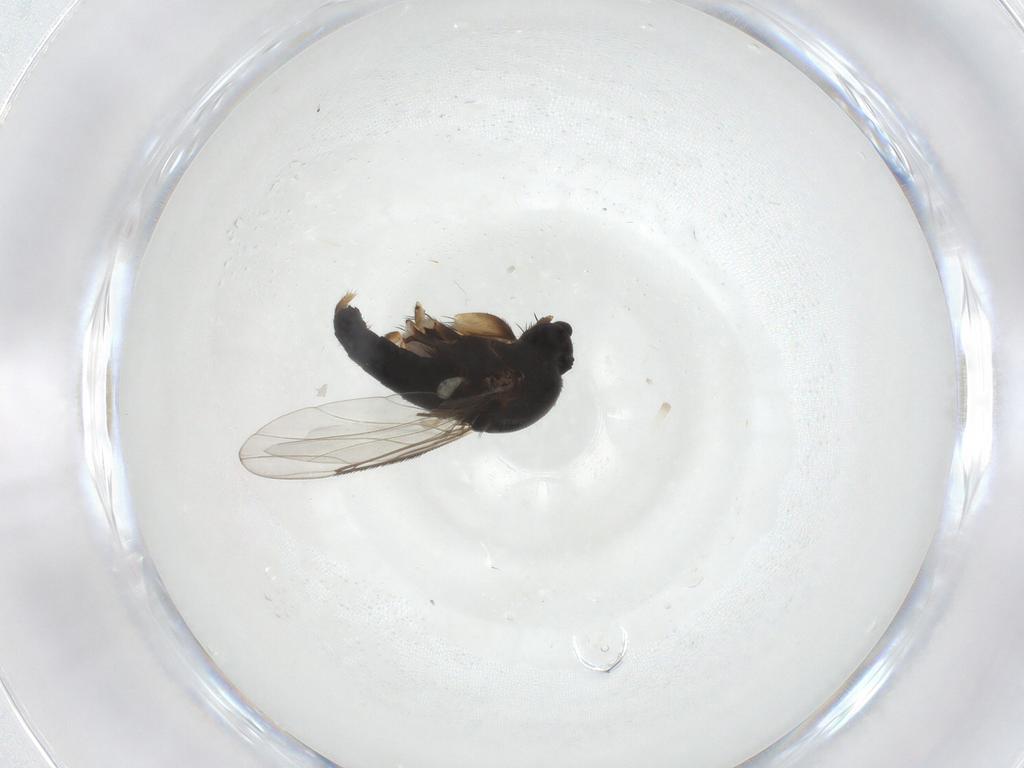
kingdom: Animalia
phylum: Arthropoda
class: Insecta
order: Diptera
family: Phoridae
